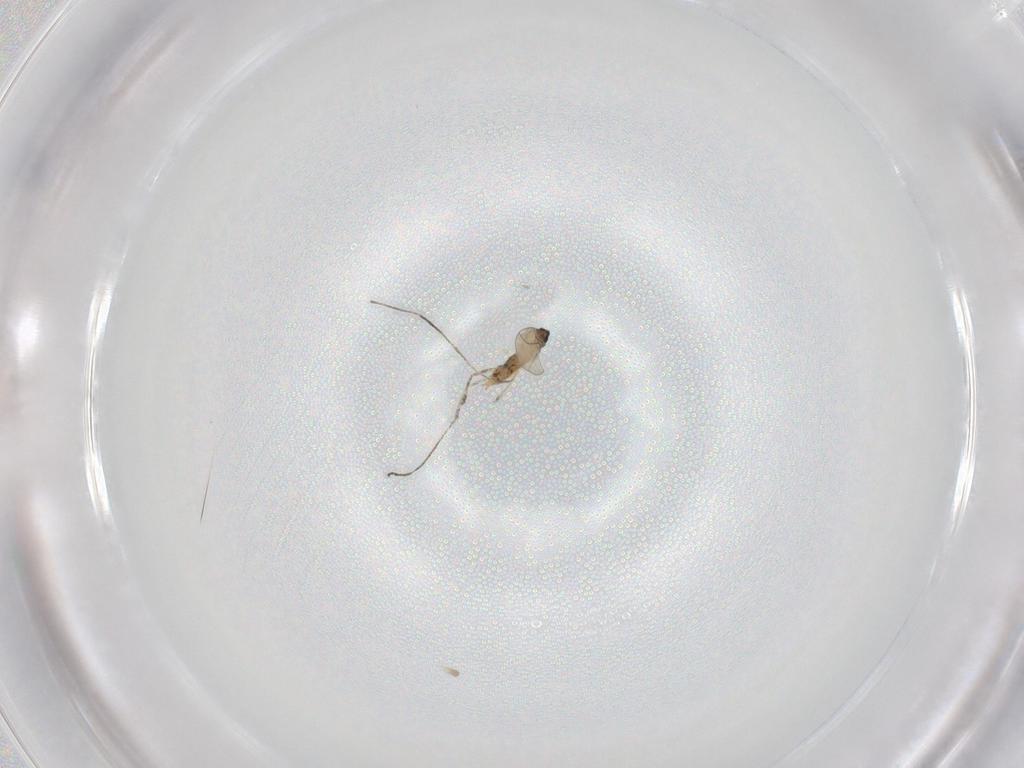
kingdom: Animalia
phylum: Arthropoda
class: Insecta
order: Diptera
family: Cecidomyiidae
